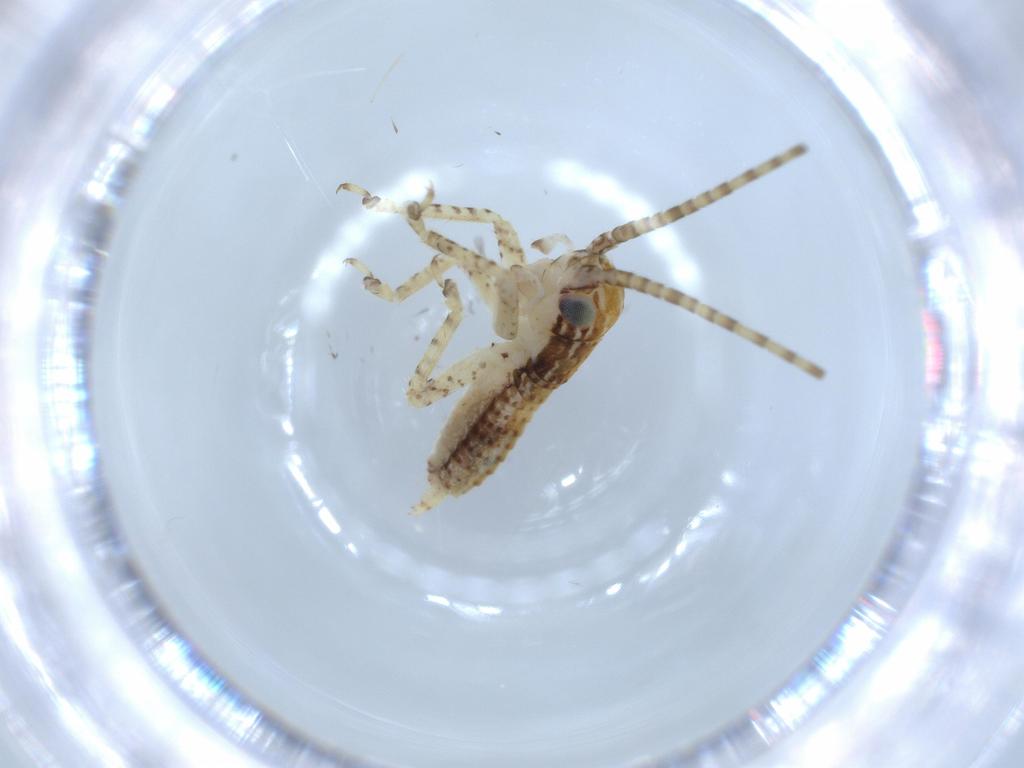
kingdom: Animalia
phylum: Arthropoda
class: Insecta
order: Orthoptera
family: Gryllidae
